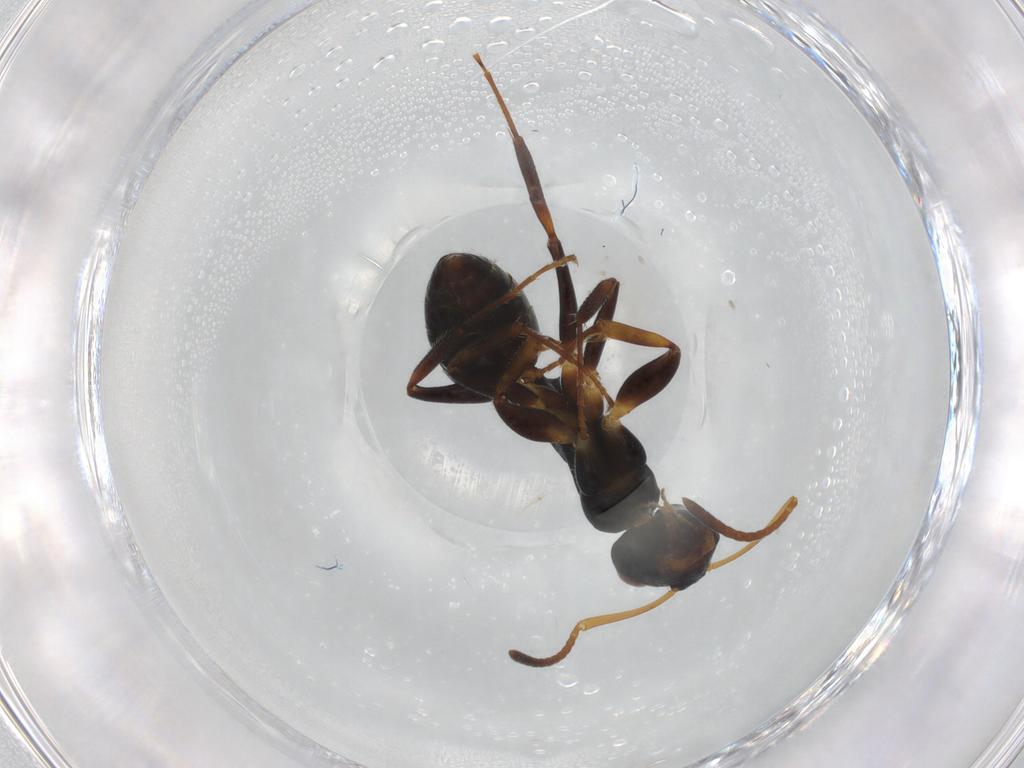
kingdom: Animalia
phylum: Arthropoda
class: Insecta
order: Hymenoptera
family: Formicidae
